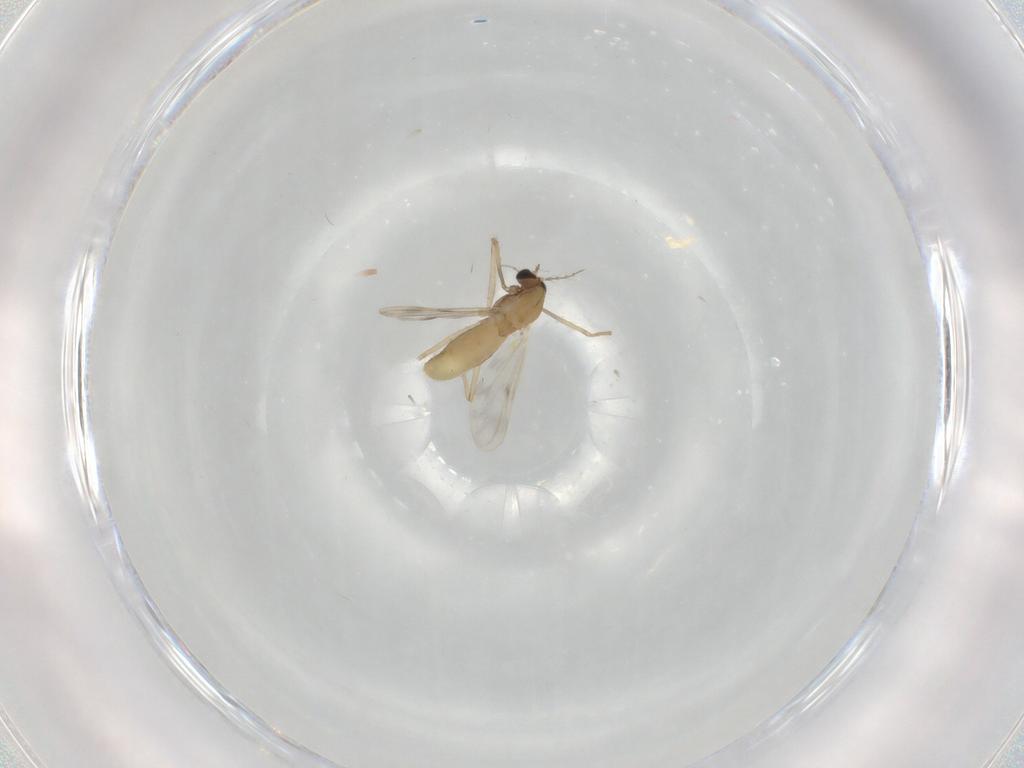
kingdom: Animalia
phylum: Arthropoda
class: Insecta
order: Diptera
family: Chironomidae
